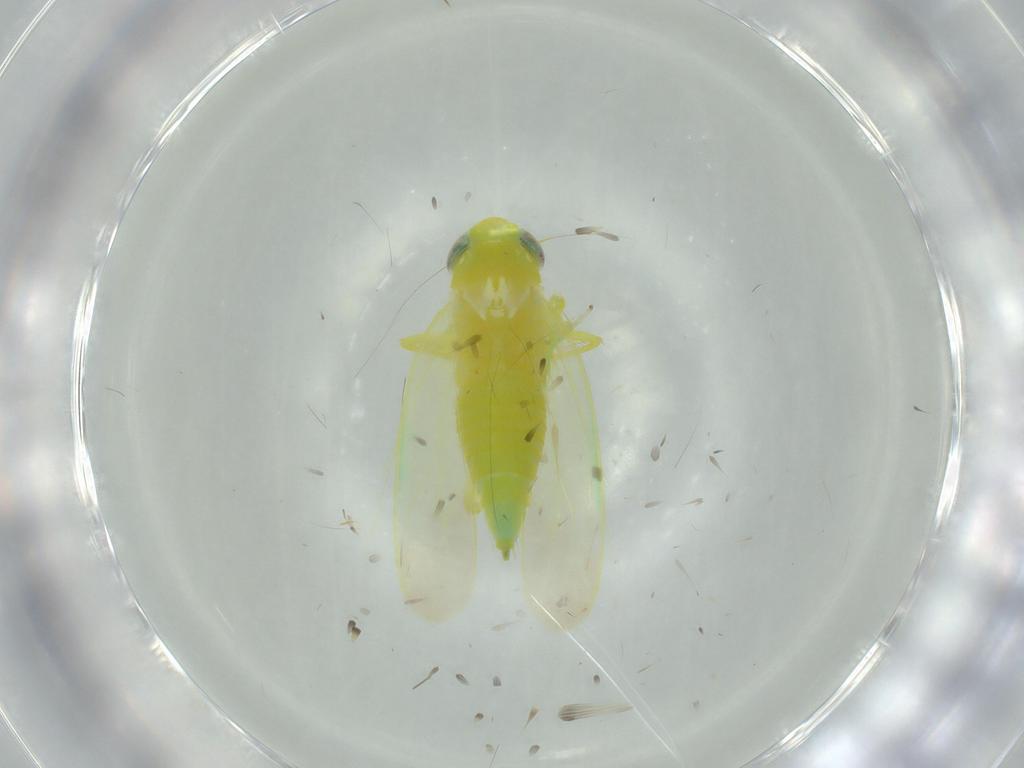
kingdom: Animalia
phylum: Arthropoda
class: Insecta
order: Hemiptera
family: Cicadellidae
